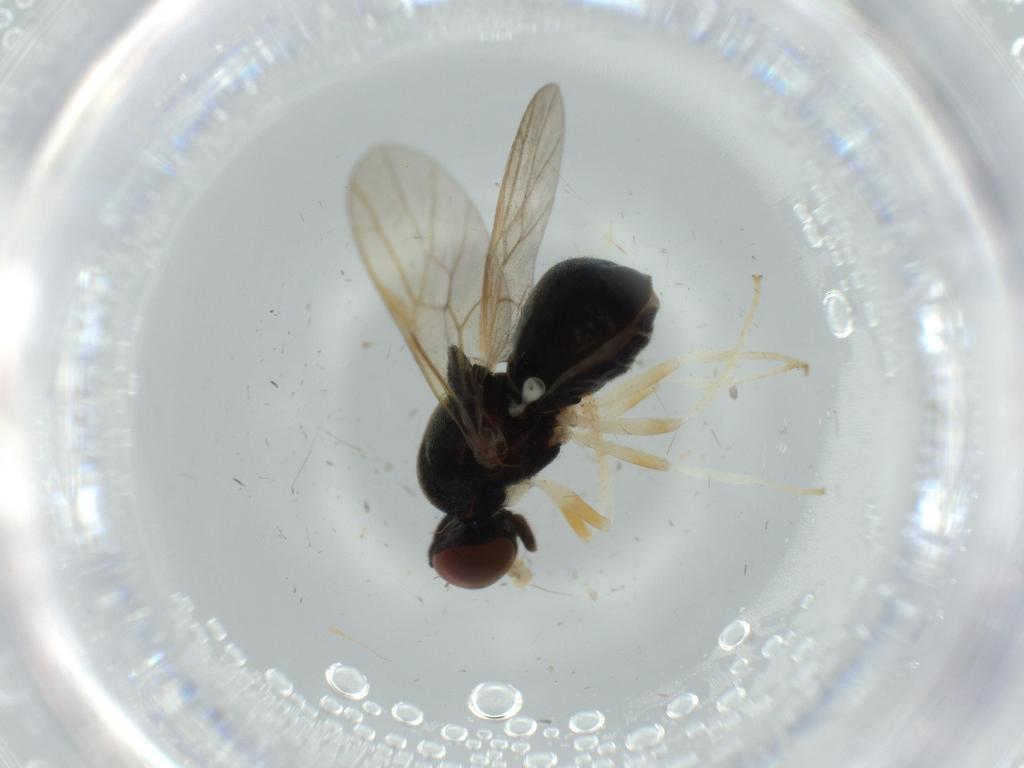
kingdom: Animalia
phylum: Arthropoda
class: Insecta
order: Diptera
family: Stratiomyidae
